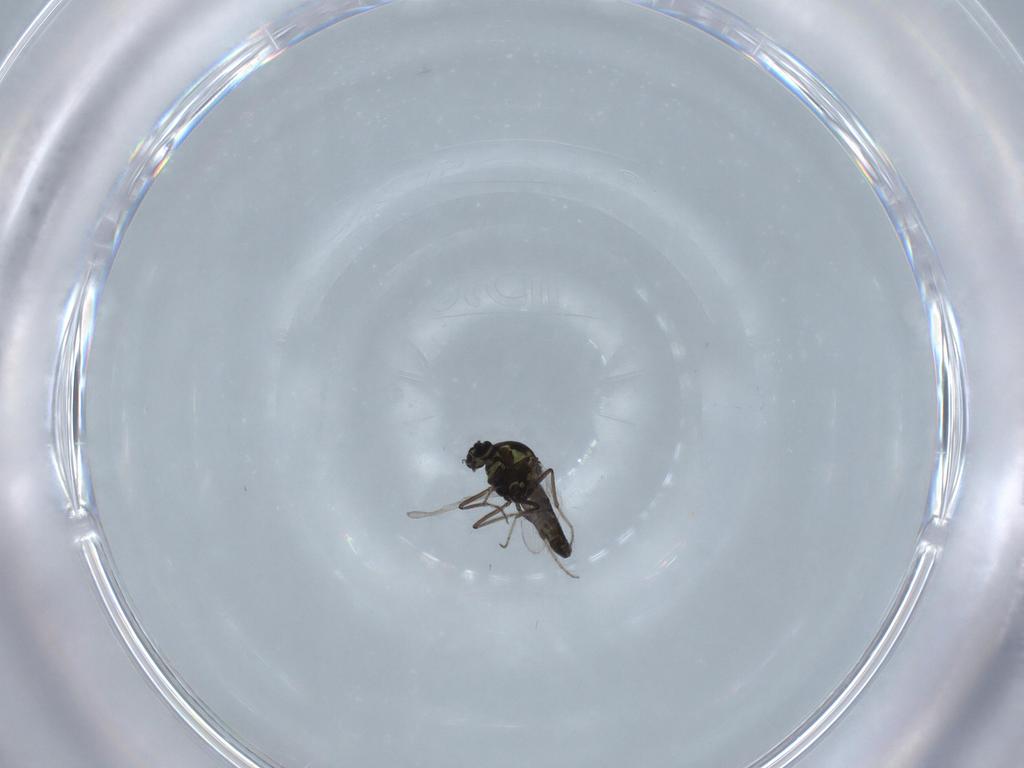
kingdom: Animalia
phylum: Arthropoda
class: Insecta
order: Diptera
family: Ceratopogonidae
